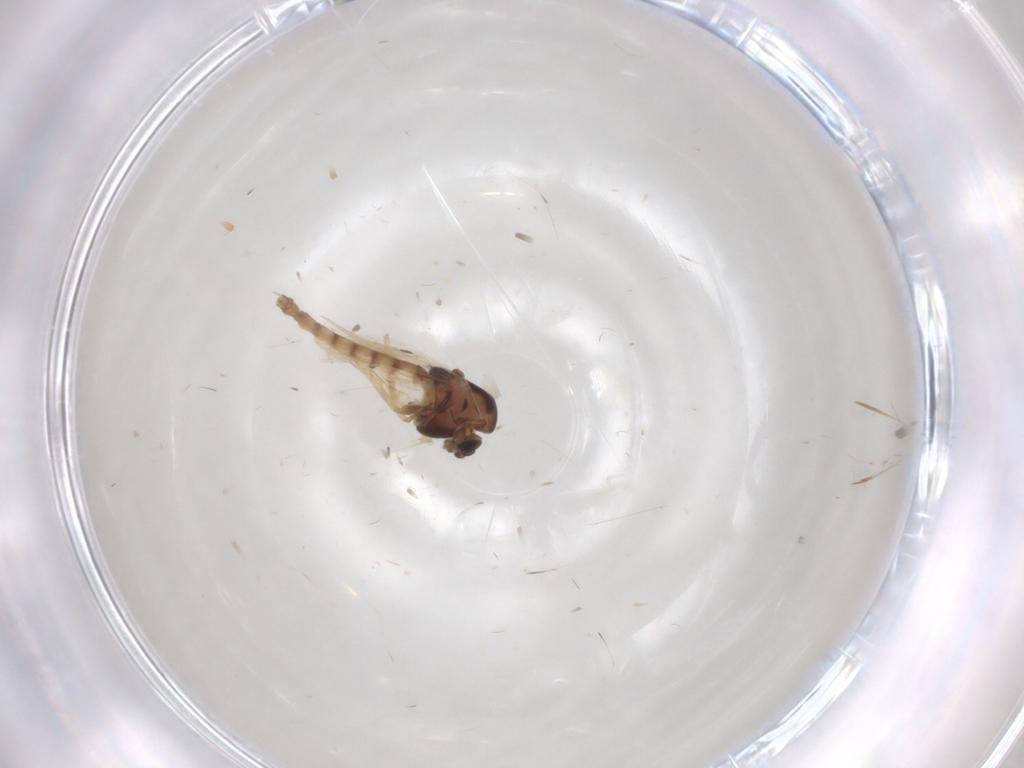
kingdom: Animalia
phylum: Arthropoda
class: Insecta
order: Diptera
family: Chironomidae
